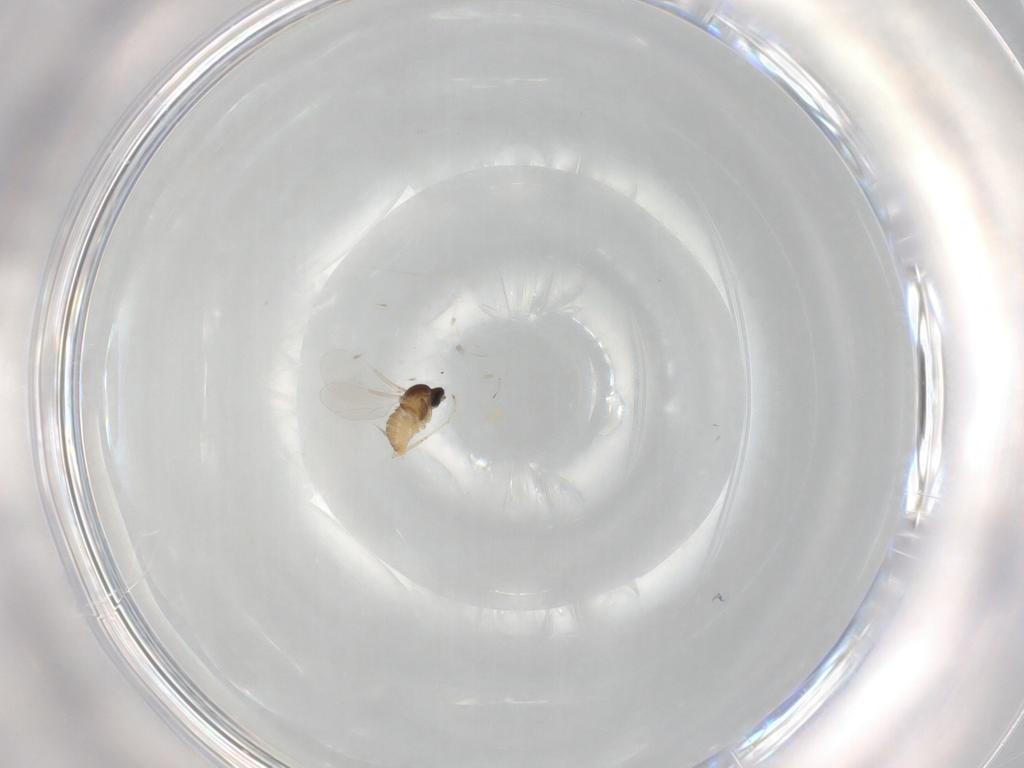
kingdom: Animalia
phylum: Arthropoda
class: Insecta
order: Diptera
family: Cecidomyiidae
